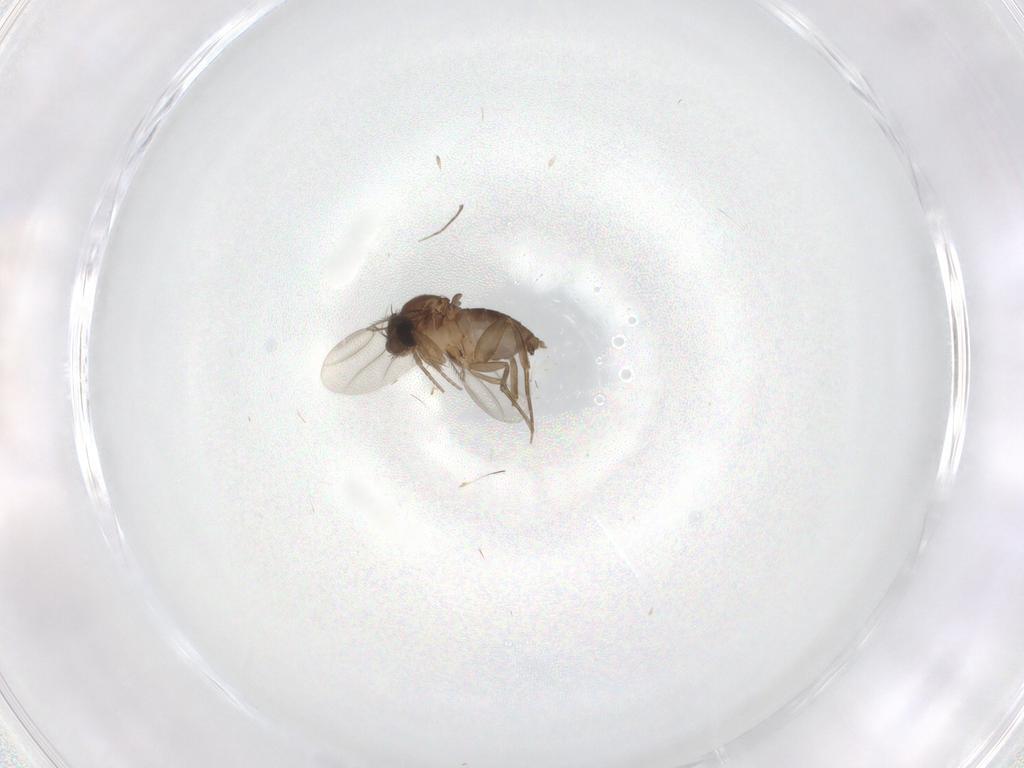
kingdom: Animalia
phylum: Arthropoda
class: Insecta
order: Diptera
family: Phoridae
